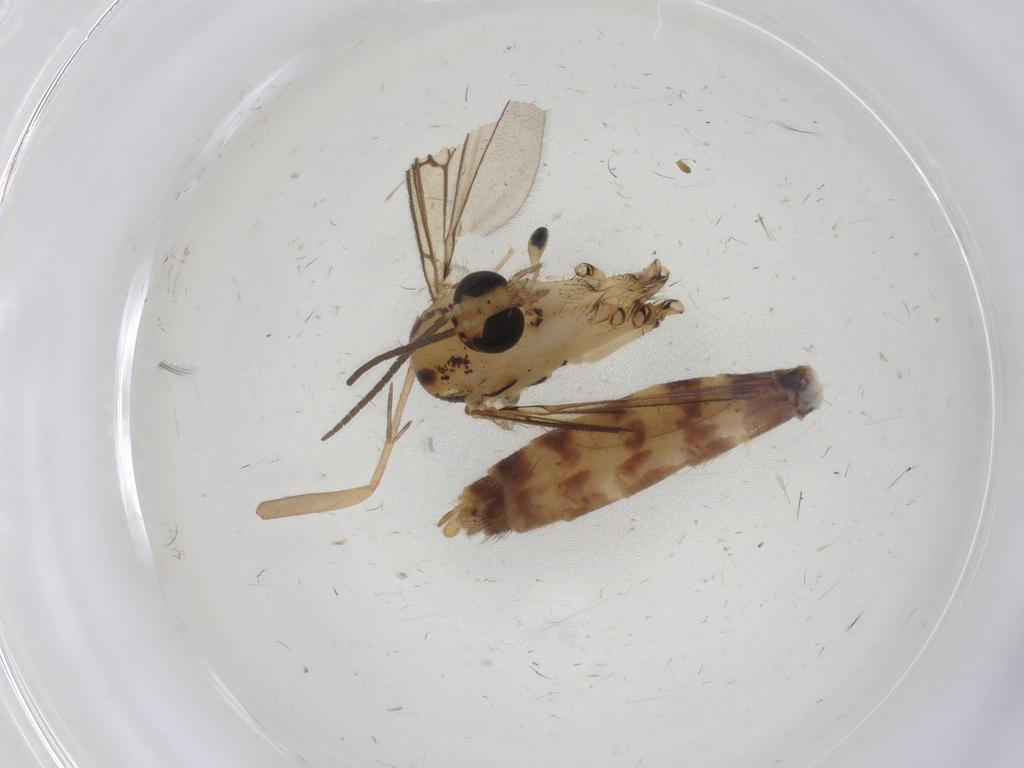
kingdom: Animalia
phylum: Arthropoda
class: Insecta
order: Diptera
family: Mycetophilidae
